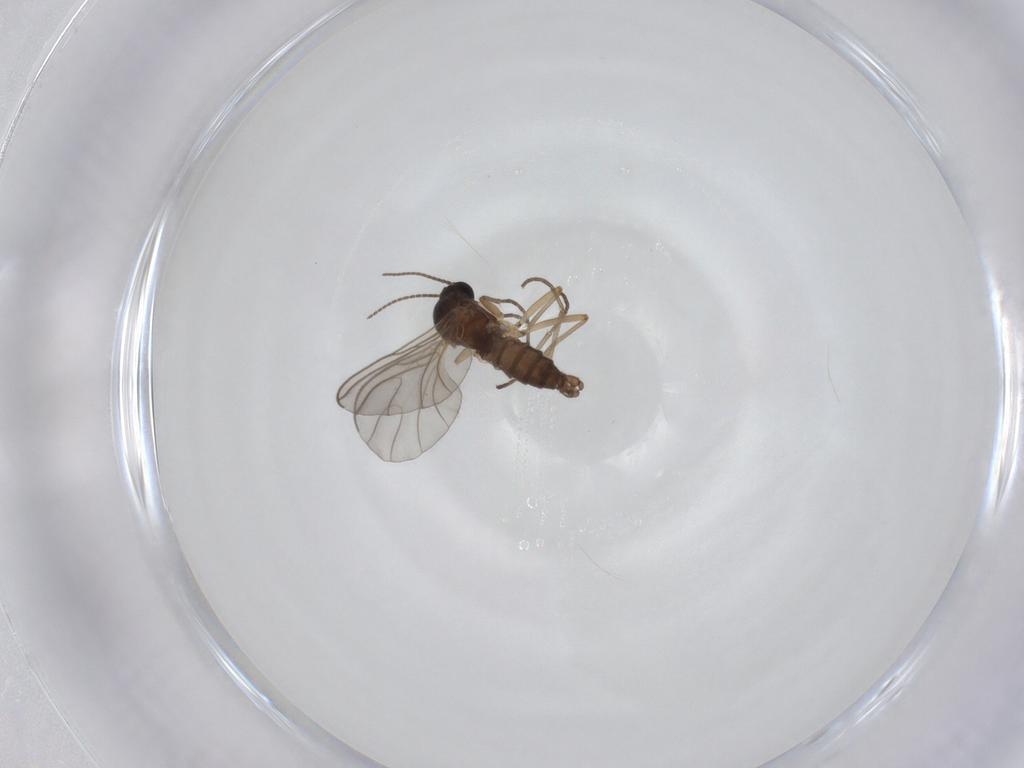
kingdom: Animalia
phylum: Arthropoda
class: Insecta
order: Diptera
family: Sciaridae
